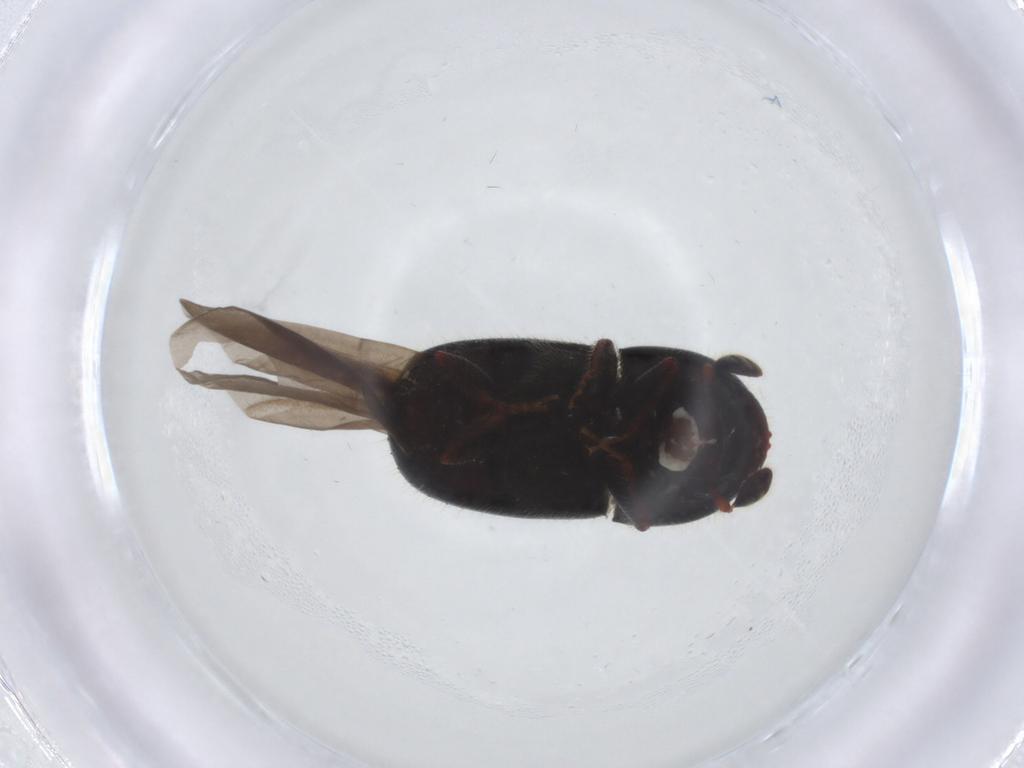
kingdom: Animalia
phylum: Arthropoda
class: Insecta
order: Coleoptera
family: Curculionidae
